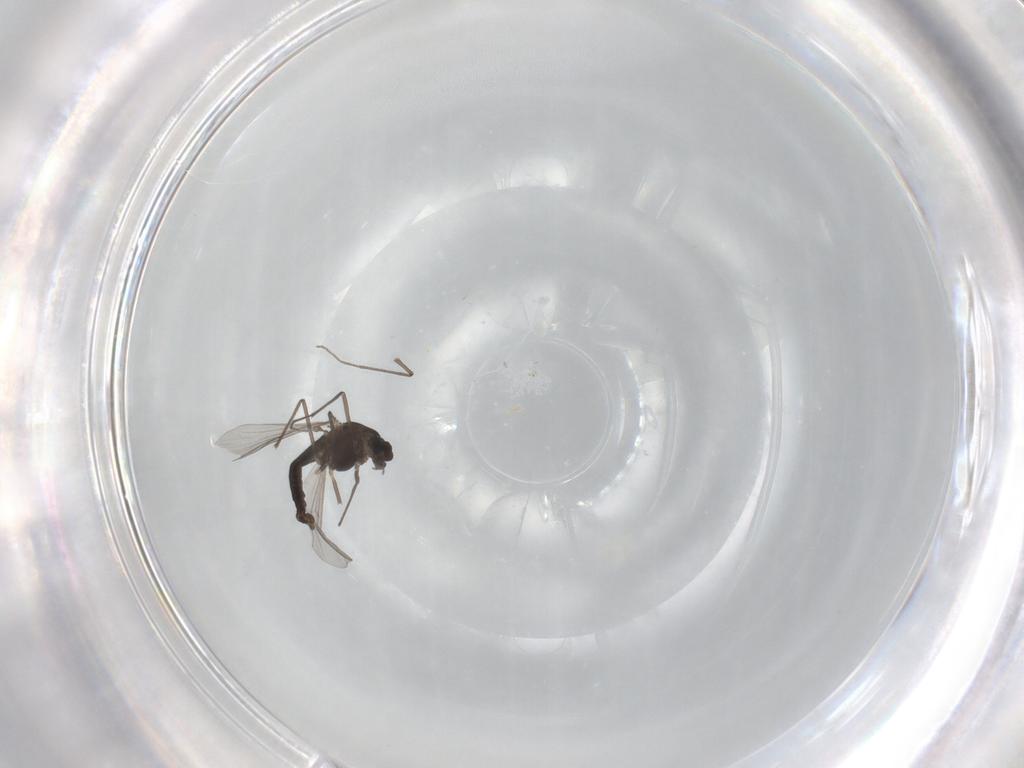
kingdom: Animalia
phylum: Arthropoda
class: Insecta
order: Diptera
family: Chironomidae
